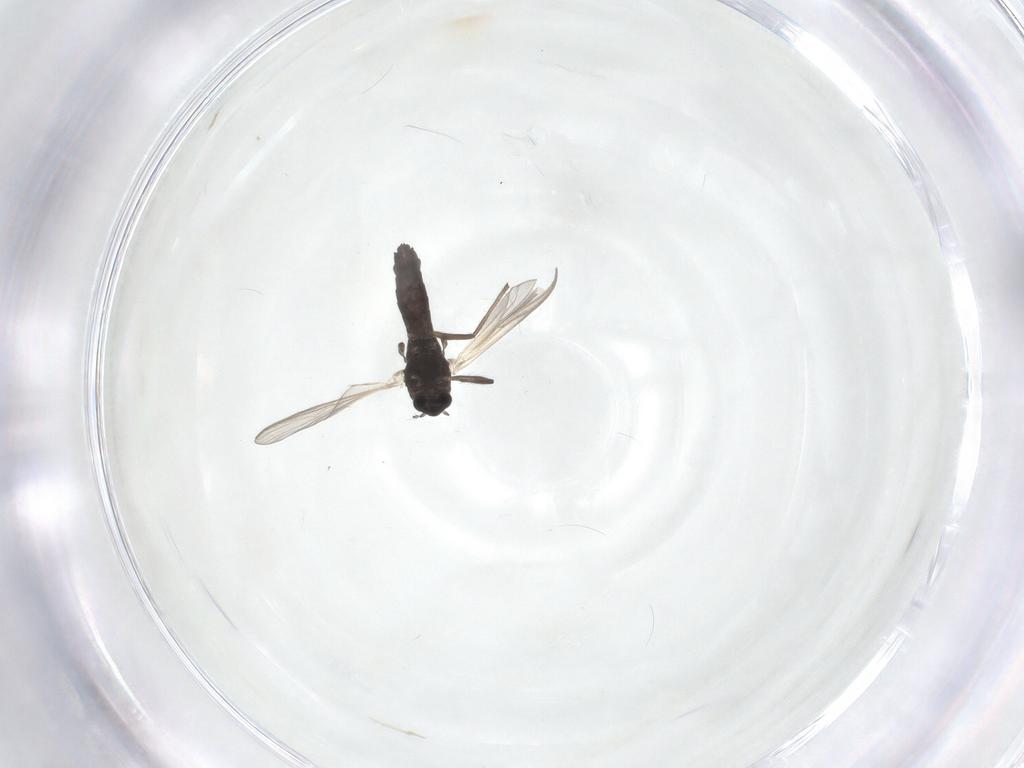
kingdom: Animalia
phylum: Arthropoda
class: Insecta
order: Diptera
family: Chironomidae
